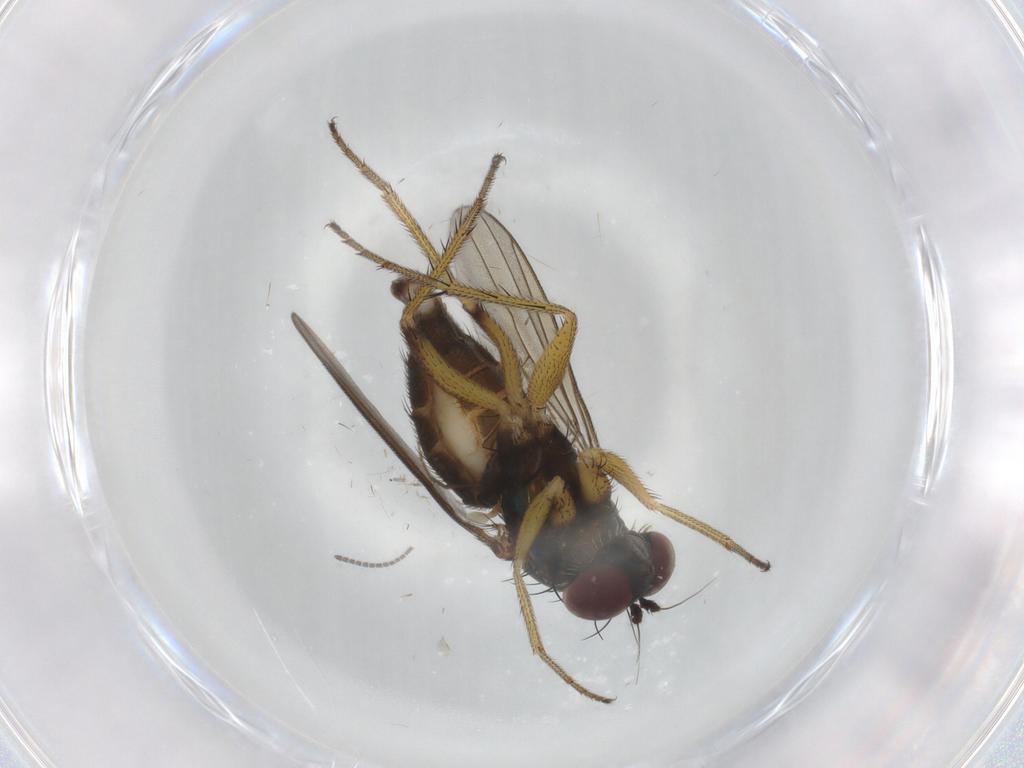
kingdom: Animalia
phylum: Arthropoda
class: Insecta
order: Diptera
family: Dolichopodidae
